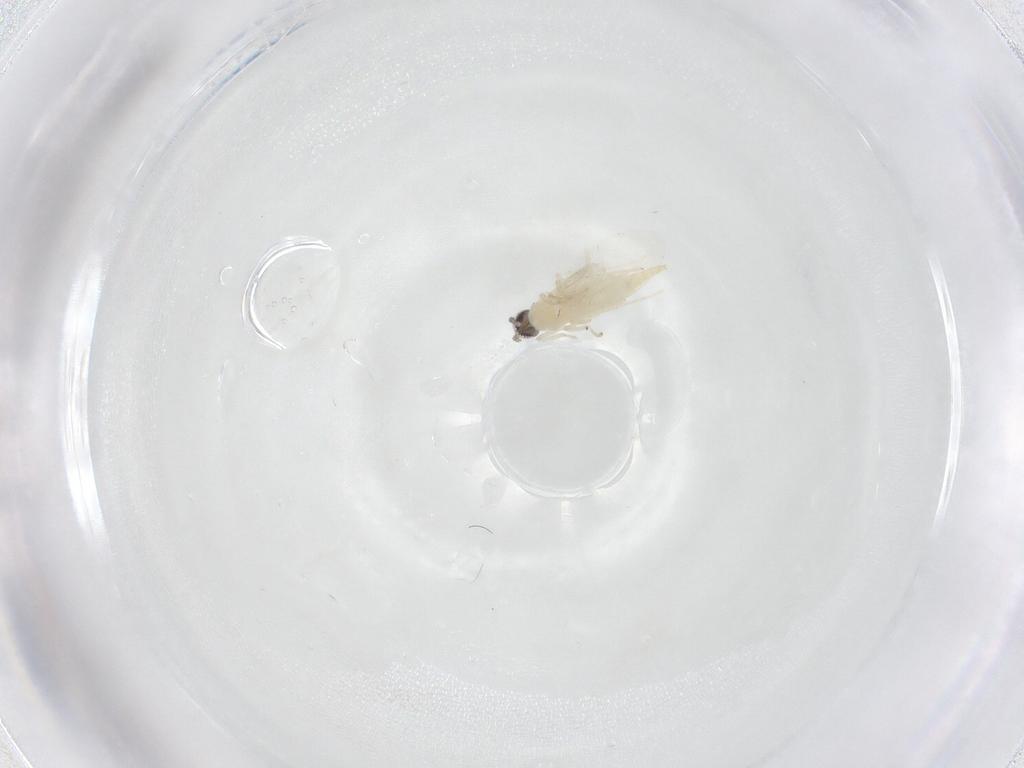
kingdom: Animalia
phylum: Arthropoda
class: Insecta
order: Diptera
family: Cecidomyiidae
